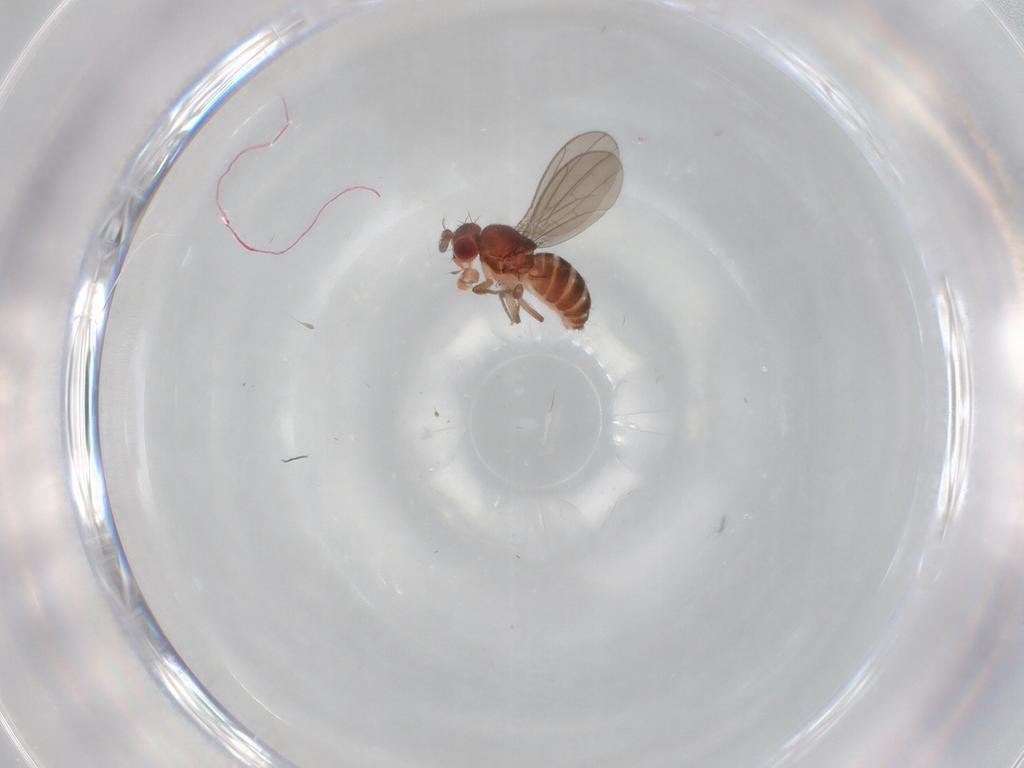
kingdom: Animalia
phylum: Arthropoda
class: Insecta
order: Diptera
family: Drosophilidae
